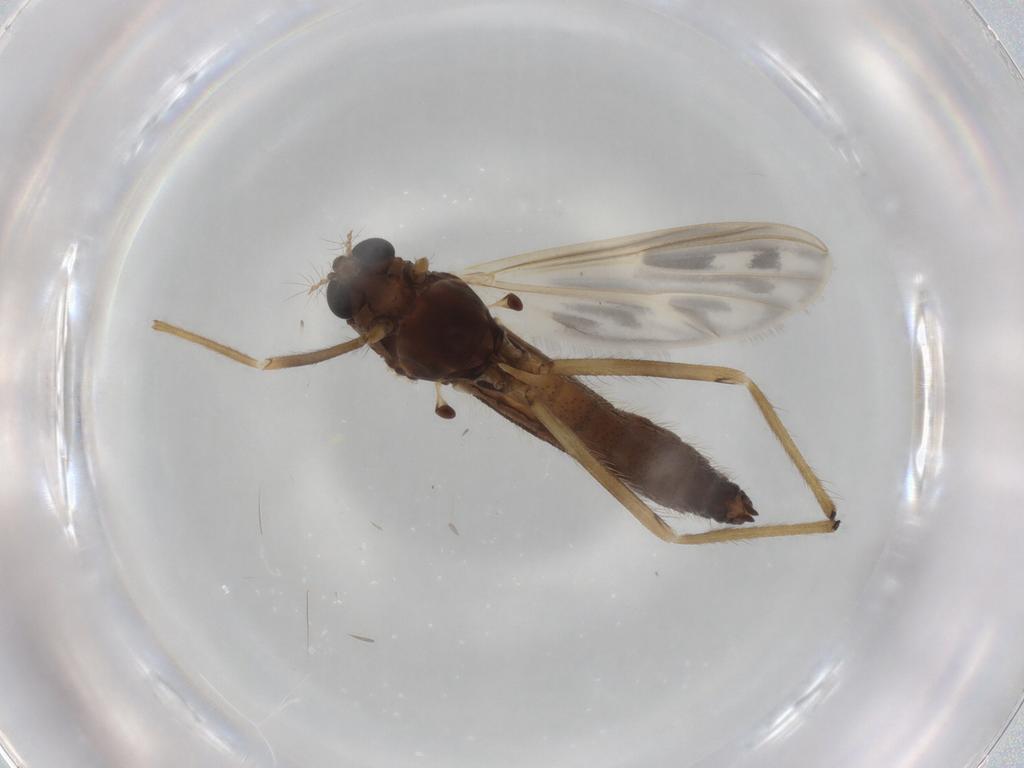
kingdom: Animalia
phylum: Arthropoda
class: Insecta
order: Diptera
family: Chironomidae
